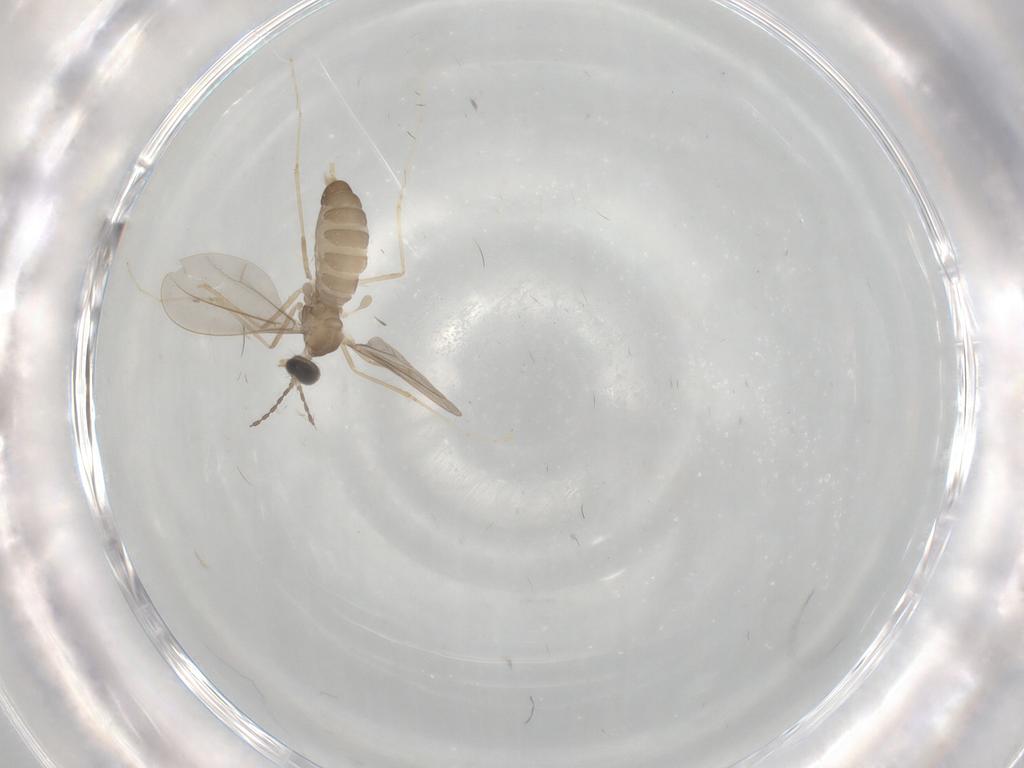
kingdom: Animalia
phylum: Arthropoda
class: Insecta
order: Diptera
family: Cecidomyiidae
